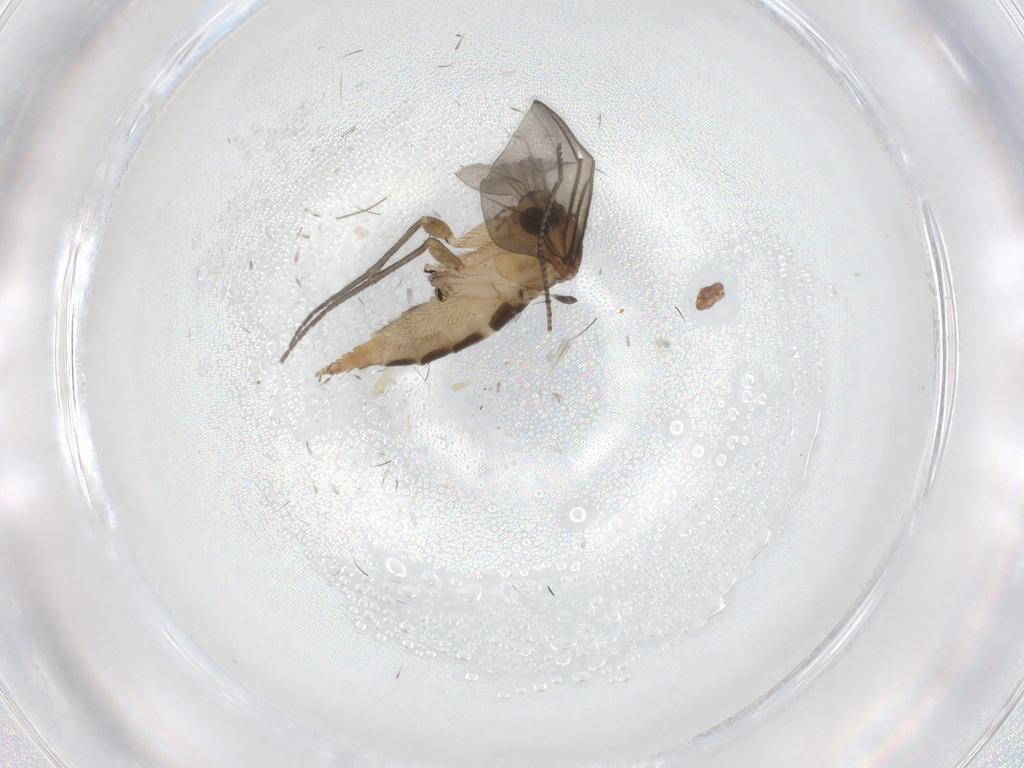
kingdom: Animalia
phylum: Arthropoda
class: Insecta
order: Diptera
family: Sciaridae
